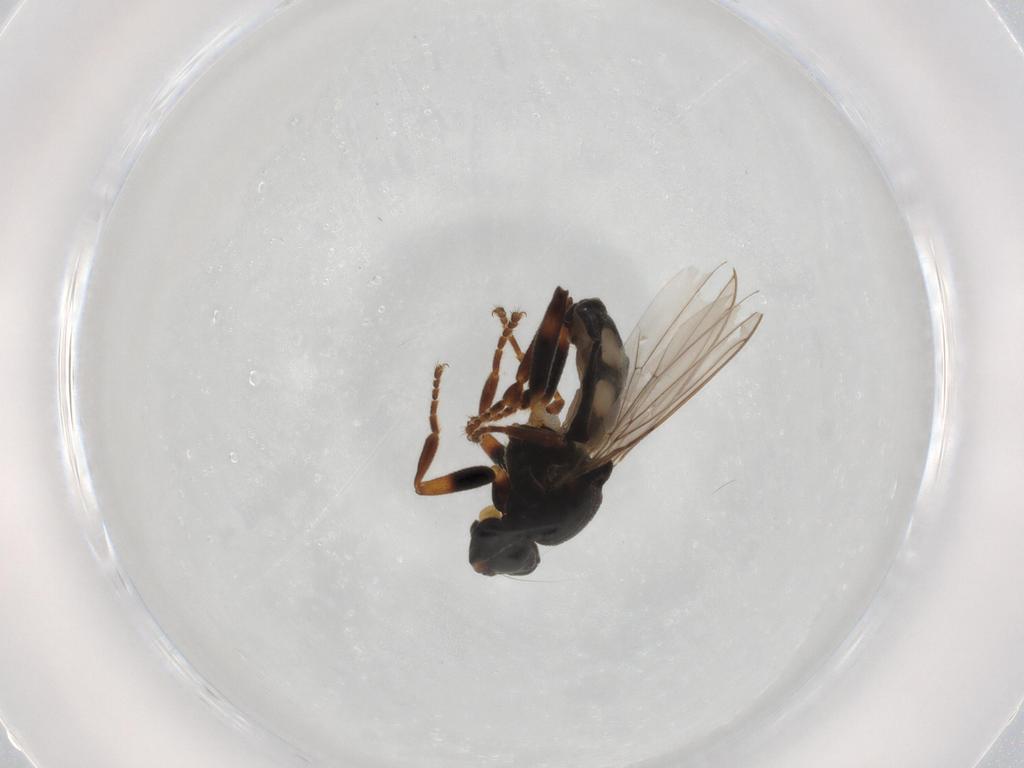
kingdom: Animalia
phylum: Arthropoda
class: Insecta
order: Diptera
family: Sphaeroceridae
